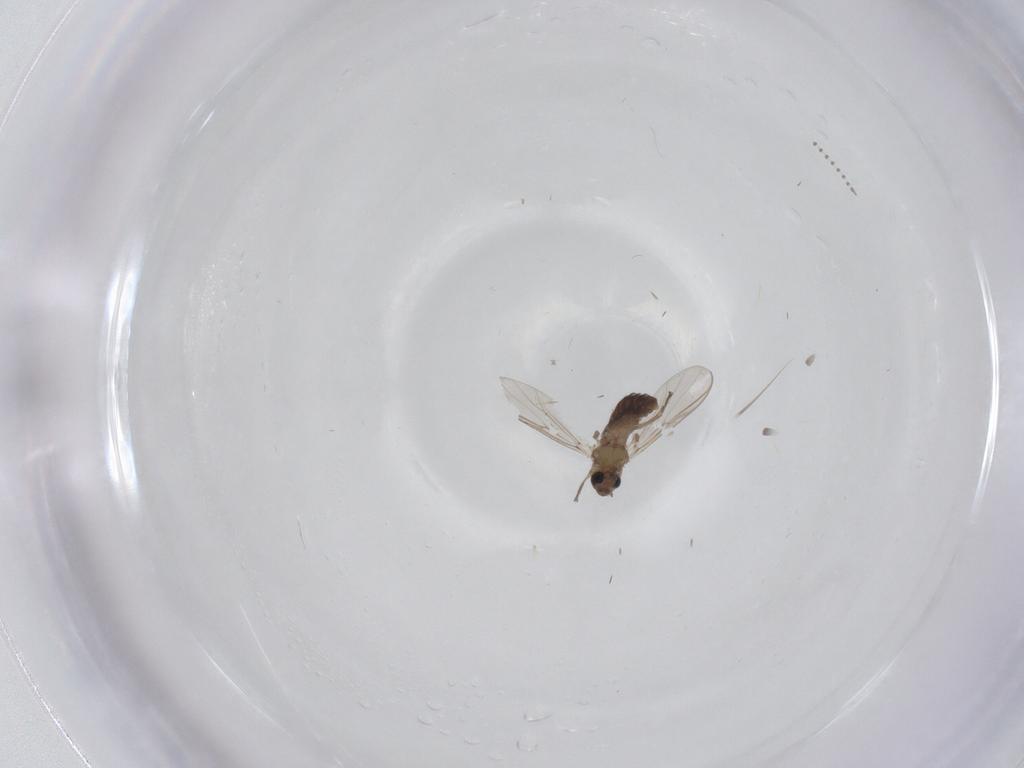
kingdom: Animalia
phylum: Arthropoda
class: Insecta
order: Diptera
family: Chironomidae
